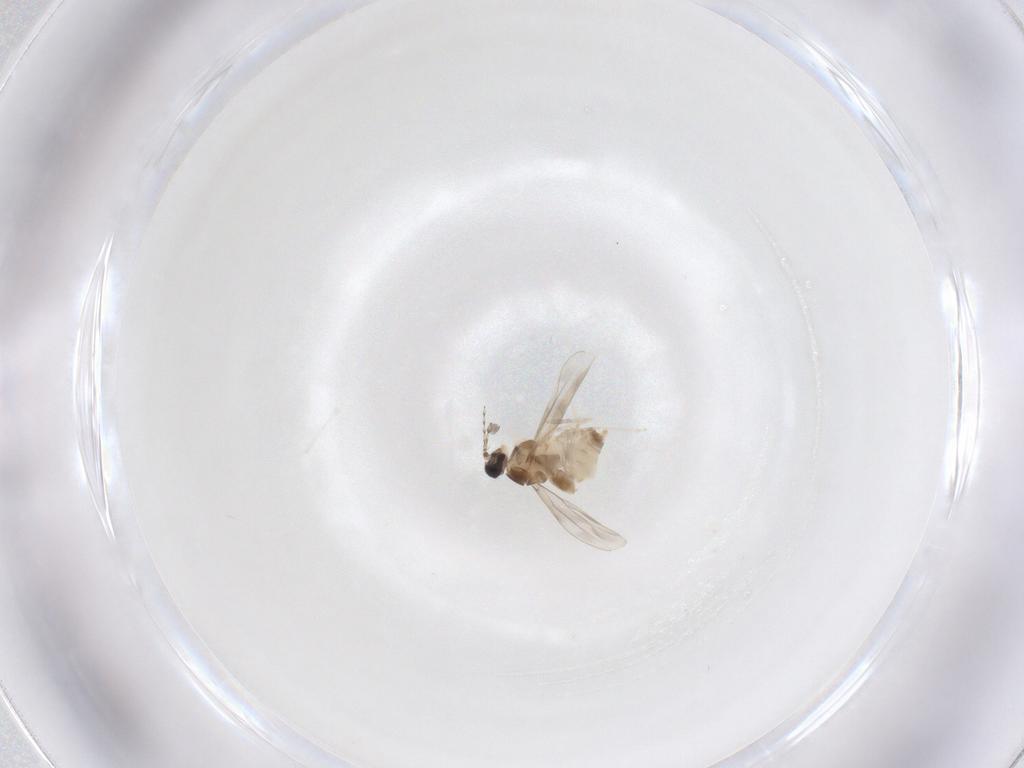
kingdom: Animalia
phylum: Arthropoda
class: Insecta
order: Diptera
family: Cecidomyiidae
